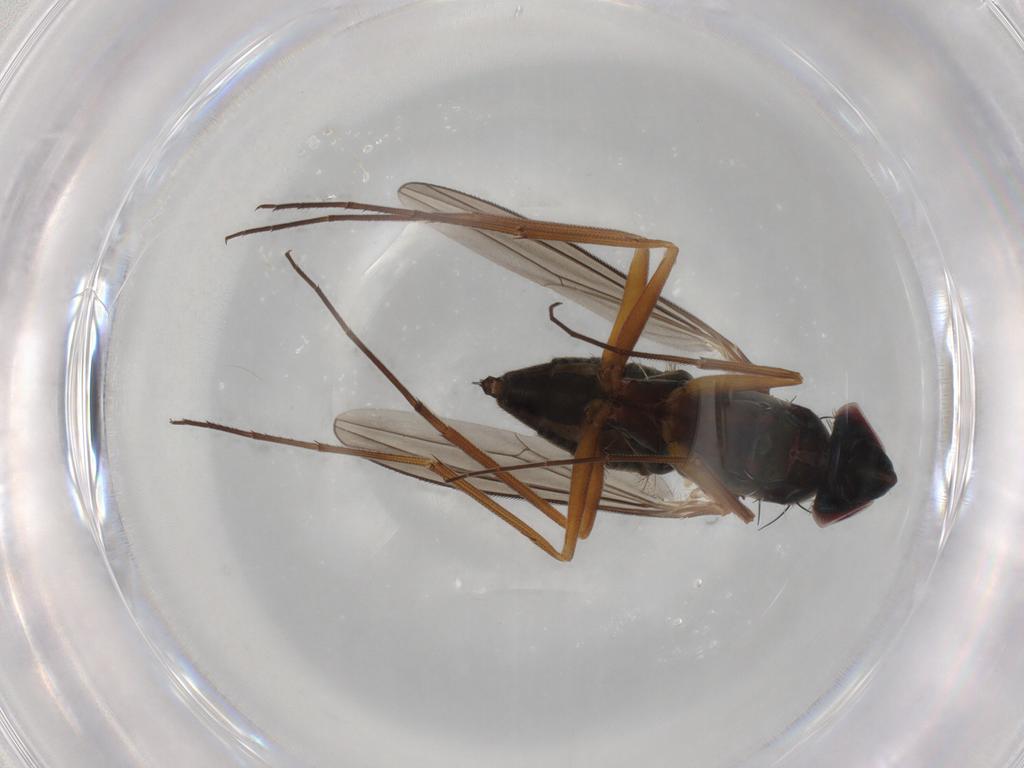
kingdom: Animalia
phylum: Arthropoda
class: Insecta
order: Diptera
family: Dolichopodidae
